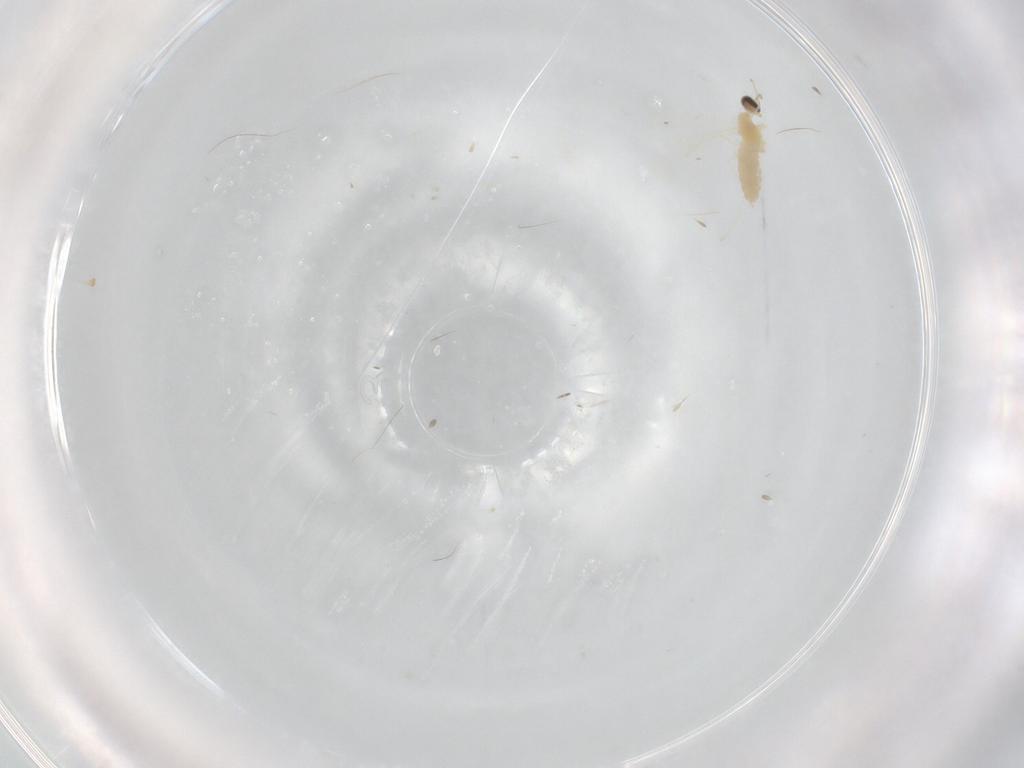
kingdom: Animalia
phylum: Arthropoda
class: Insecta
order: Diptera
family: Cecidomyiidae
